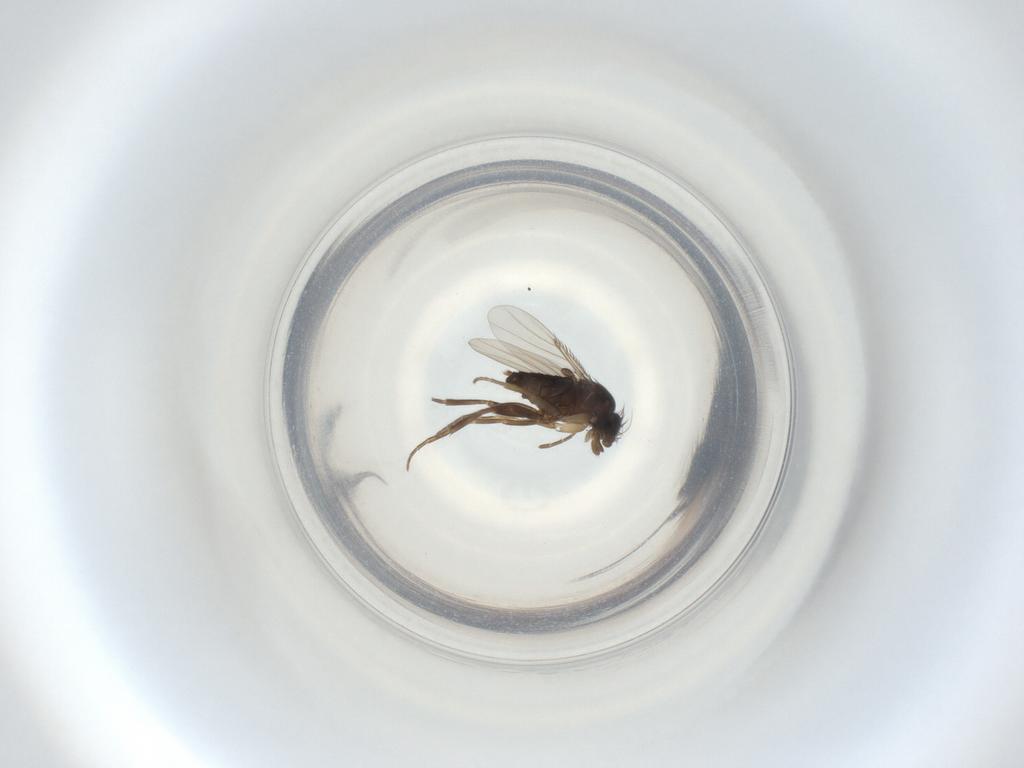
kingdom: Animalia
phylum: Arthropoda
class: Insecta
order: Diptera
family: Phoridae
